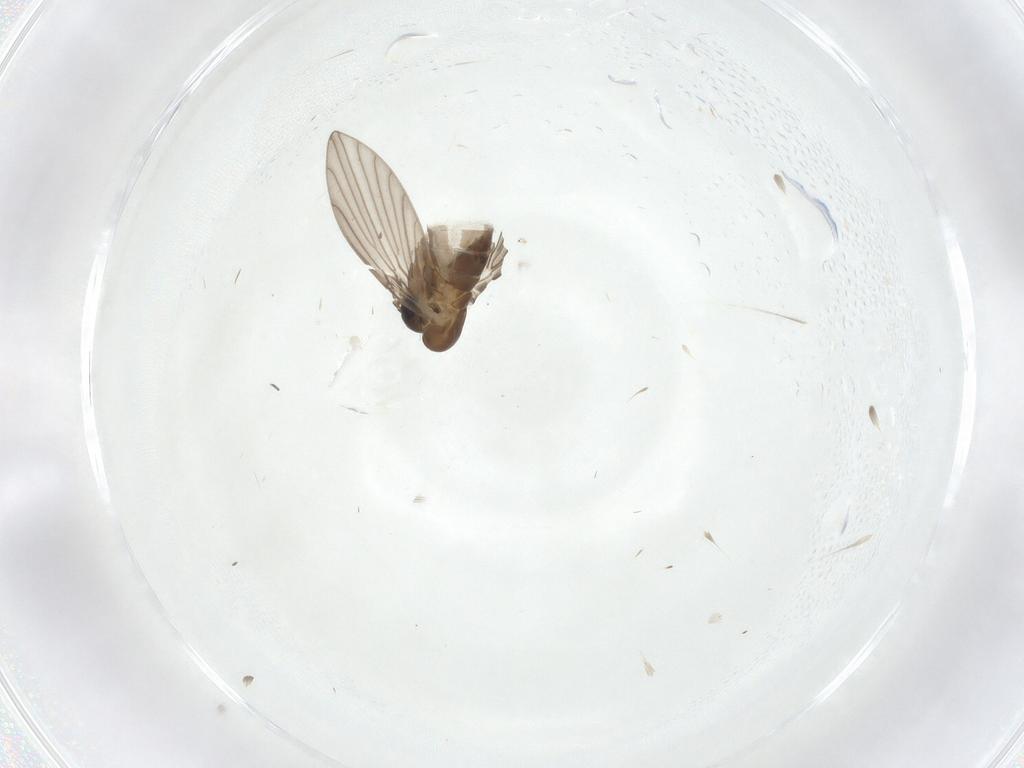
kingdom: Animalia
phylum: Arthropoda
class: Insecta
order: Diptera
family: Sciaridae
